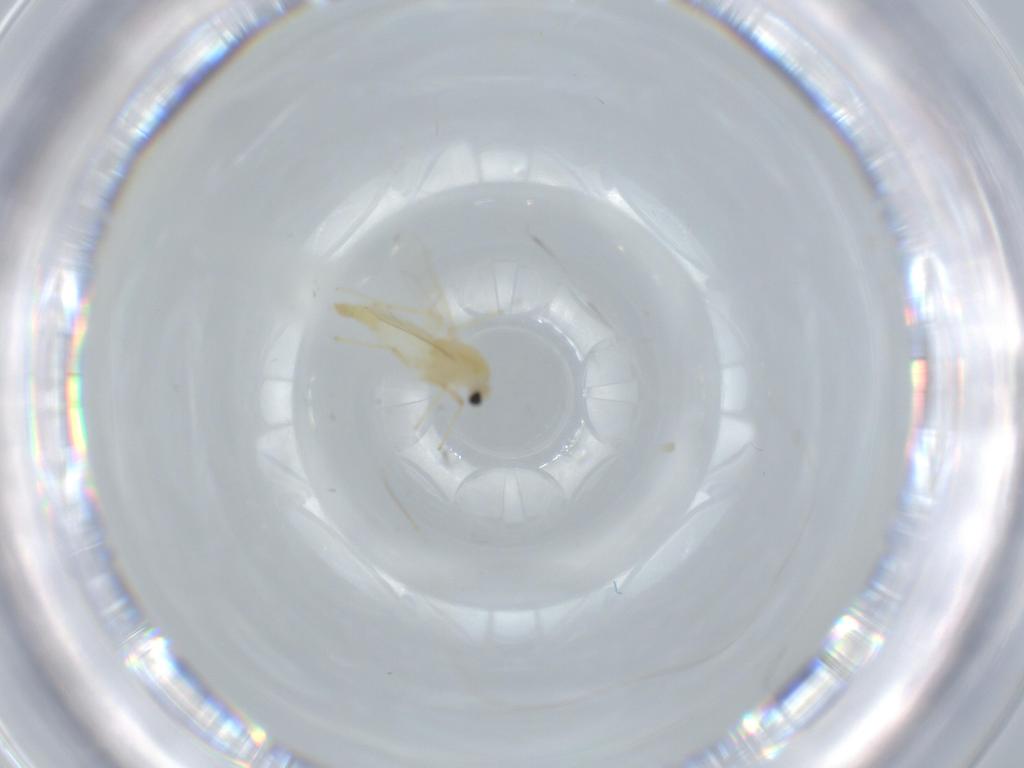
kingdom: Animalia
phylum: Arthropoda
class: Insecta
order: Diptera
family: Chironomidae
